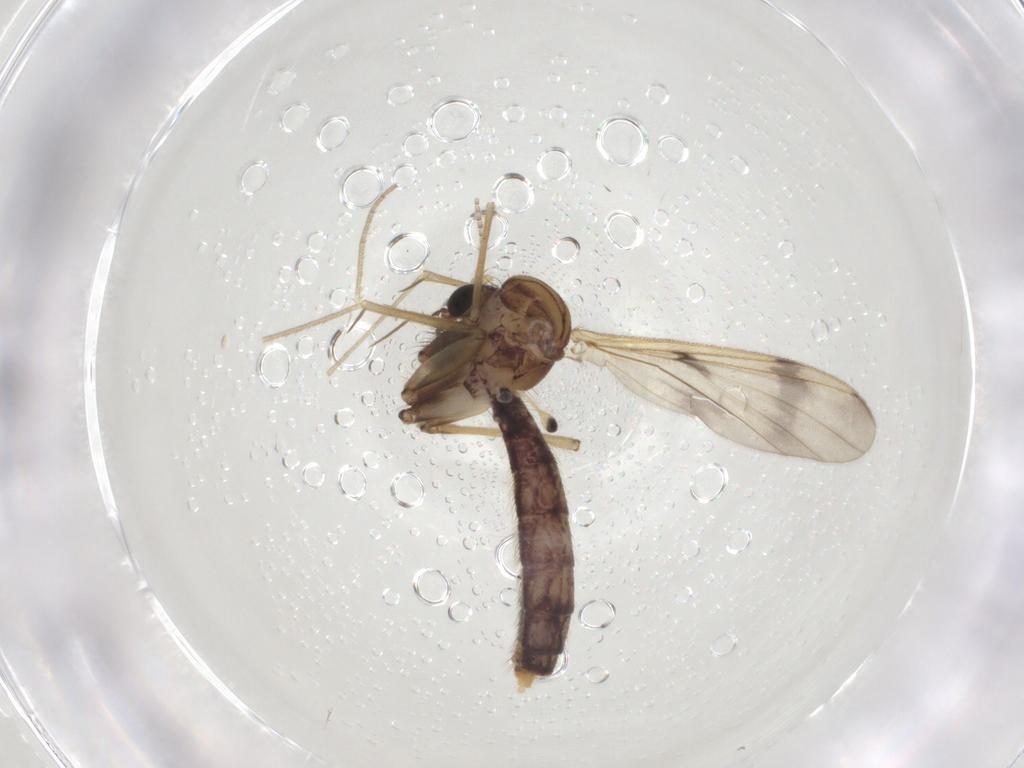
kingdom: Animalia
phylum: Arthropoda
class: Insecta
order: Diptera
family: Mycetophilidae
